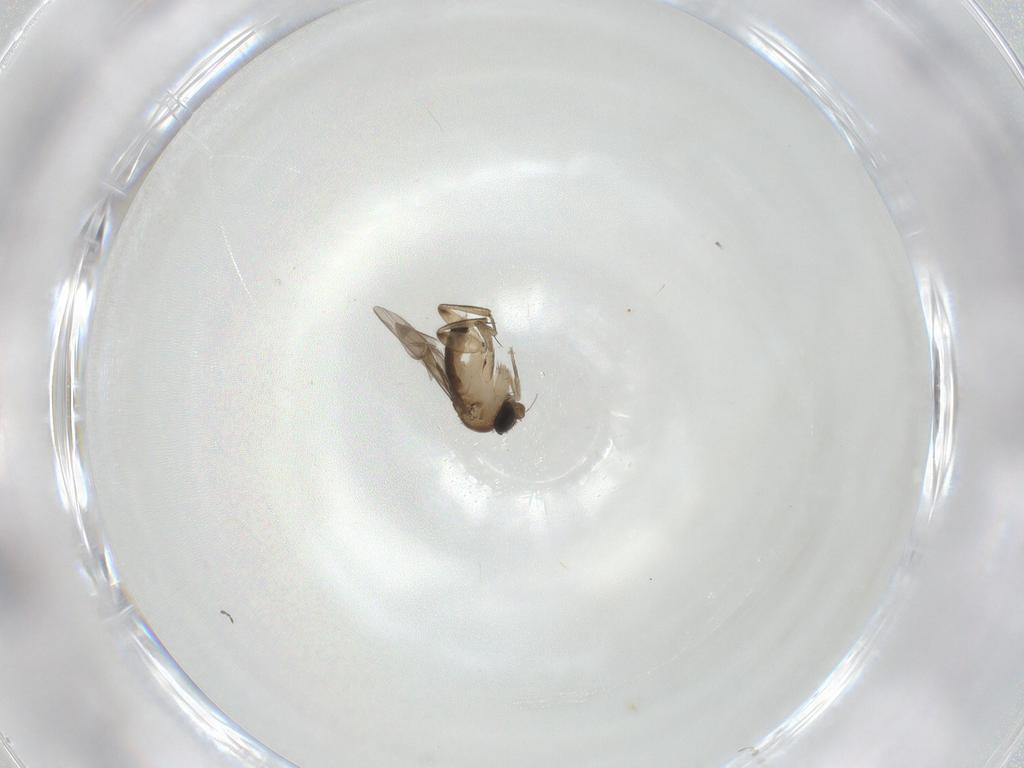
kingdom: Animalia
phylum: Arthropoda
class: Insecta
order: Diptera
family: Phoridae
